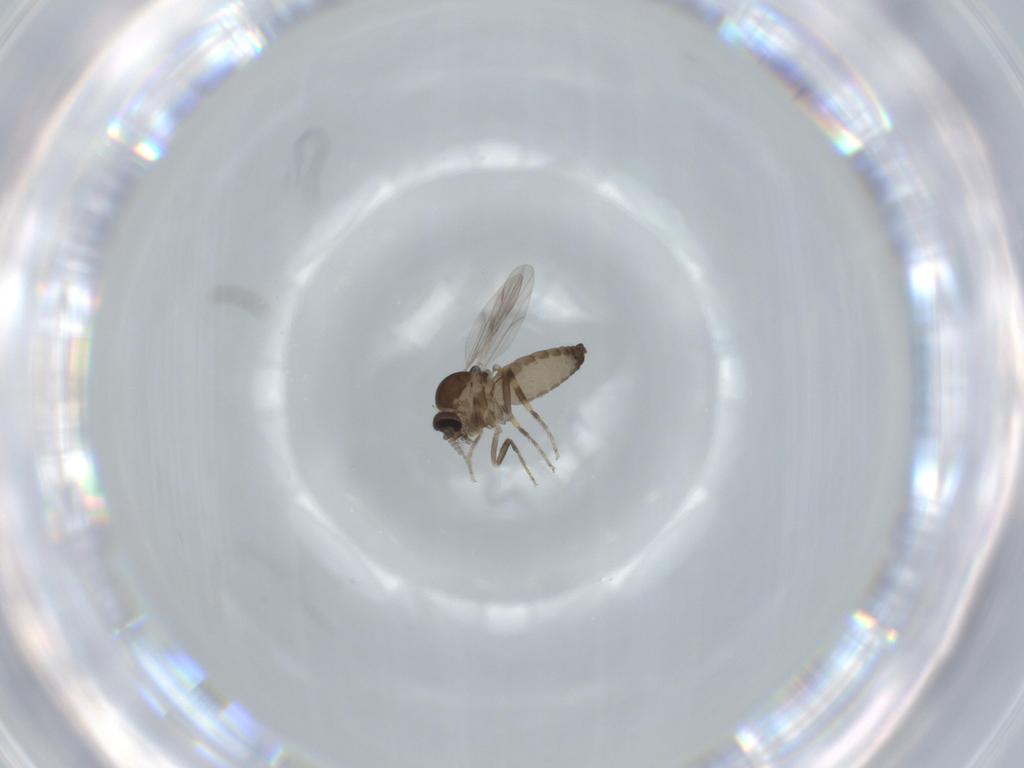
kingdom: Animalia
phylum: Arthropoda
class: Insecta
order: Diptera
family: Ceratopogonidae
